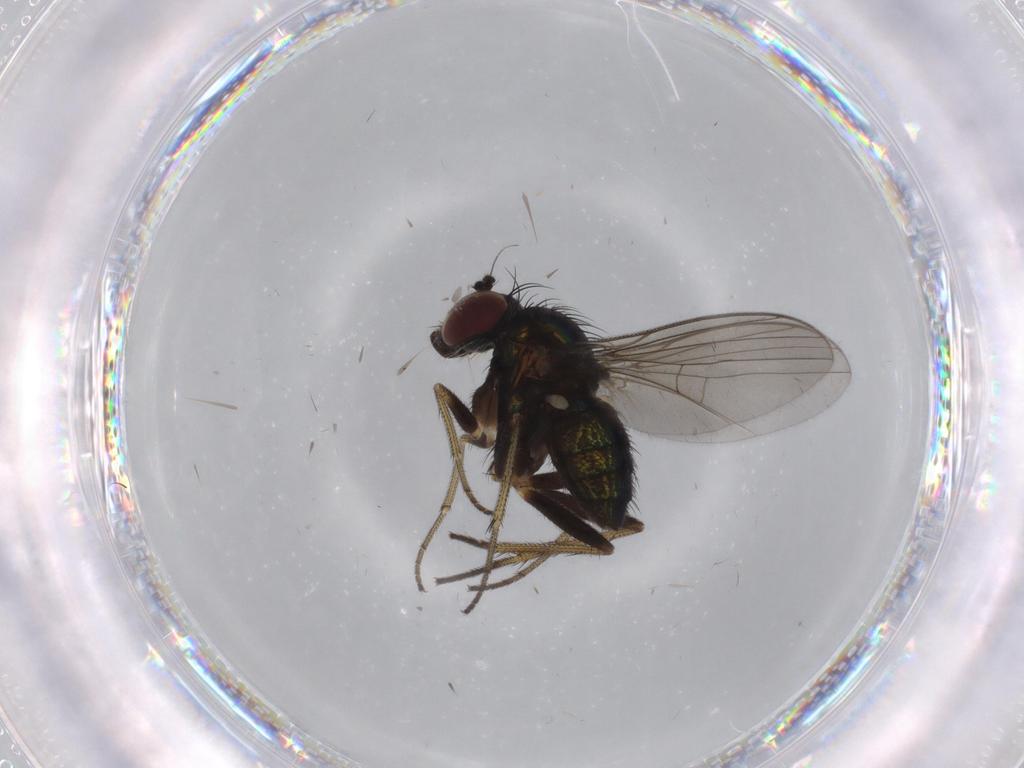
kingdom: Animalia
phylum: Arthropoda
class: Insecta
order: Diptera
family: Dolichopodidae
